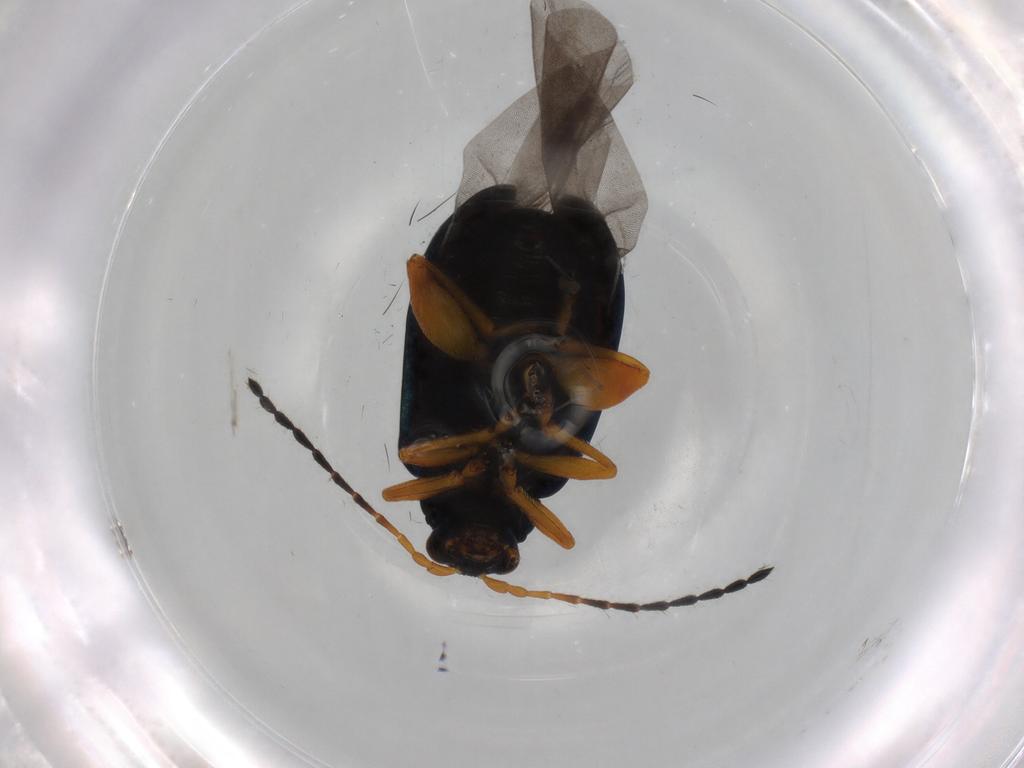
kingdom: Animalia
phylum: Arthropoda
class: Insecta
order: Coleoptera
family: Chrysomelidae
